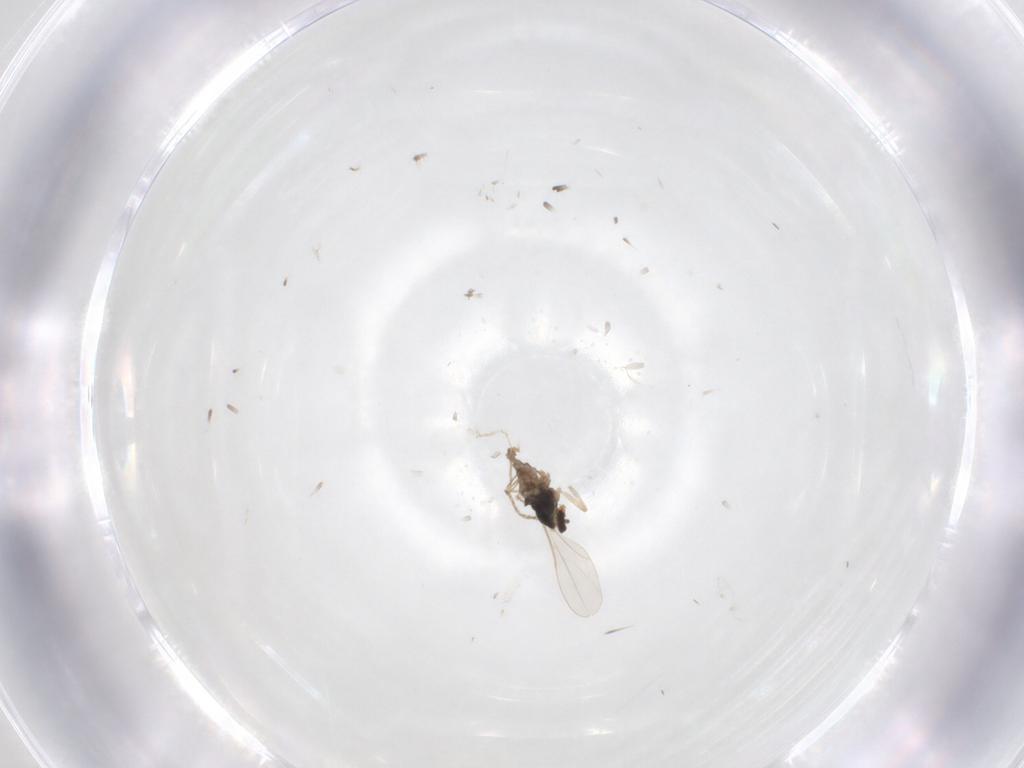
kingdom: Animalia
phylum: Arthropoda
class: Insecta
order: Diptera
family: Cecidomyiidae
